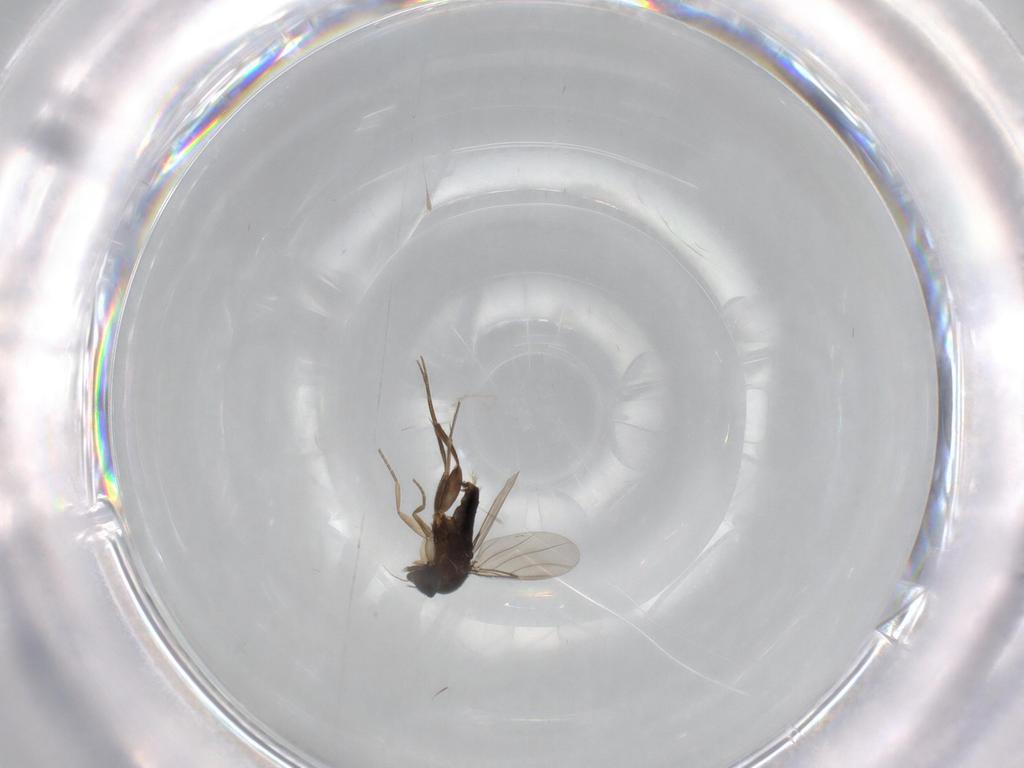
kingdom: Animalia
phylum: Arthropoda
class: Insecta
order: Diptera
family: Phoridae
